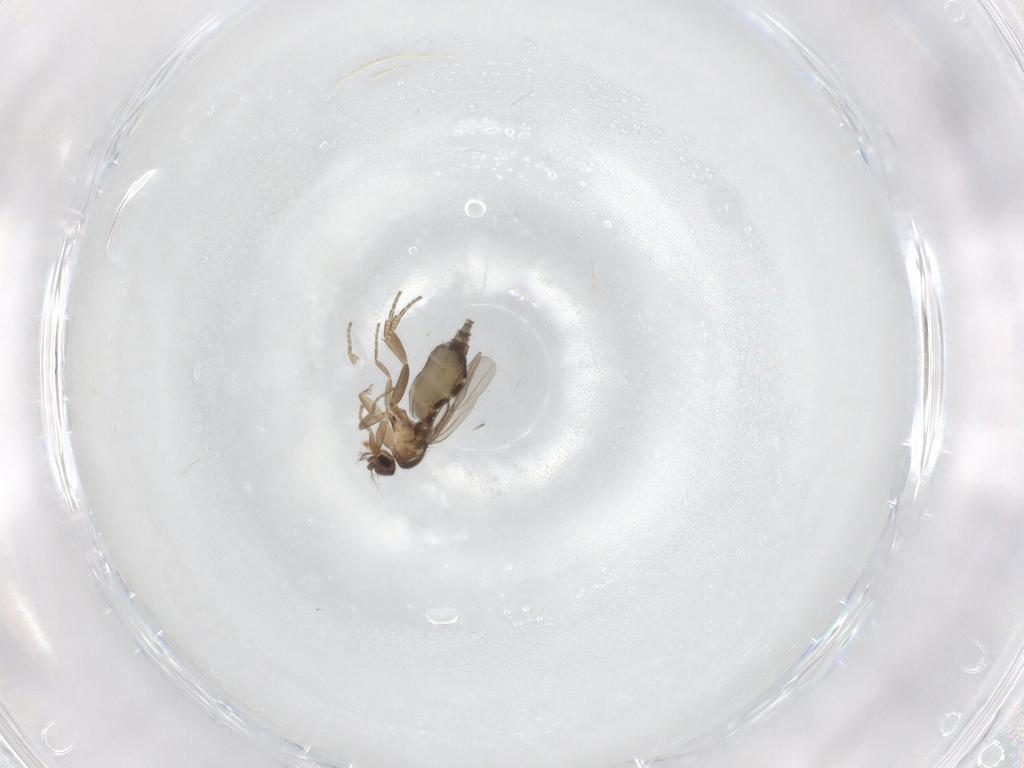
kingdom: Animalia
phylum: Arthropoda
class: Insecta
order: Diptera
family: Phoridae
